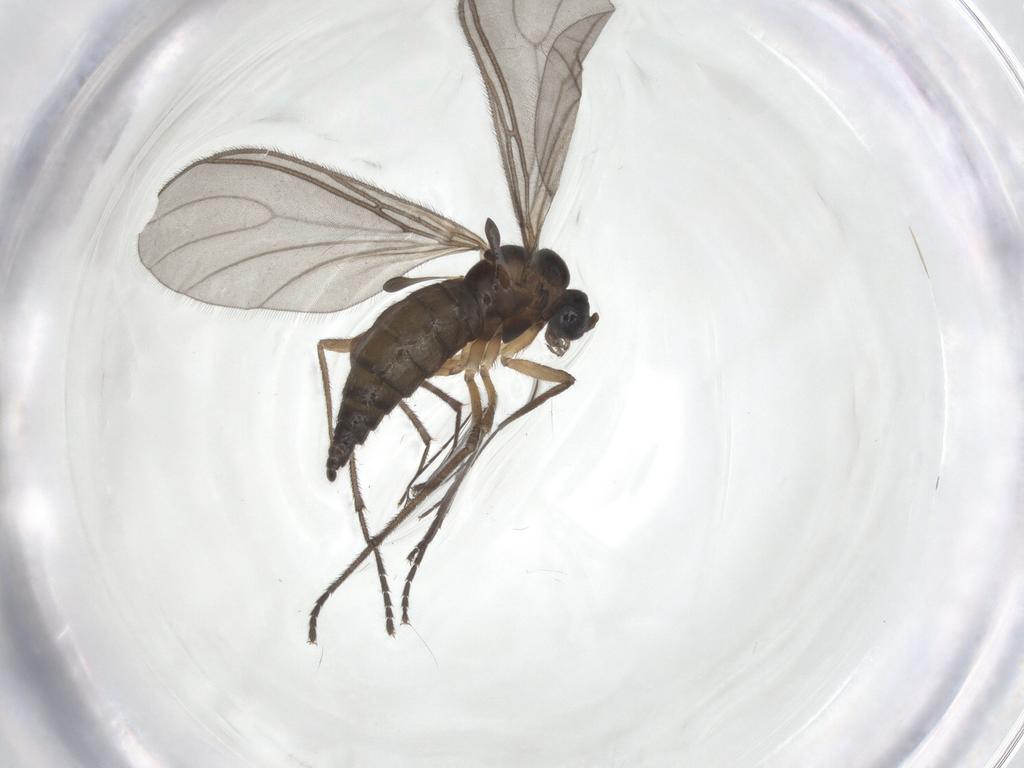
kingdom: Animalia
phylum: Arthropoda
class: Insecta
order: Diptera
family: Sciaridae
